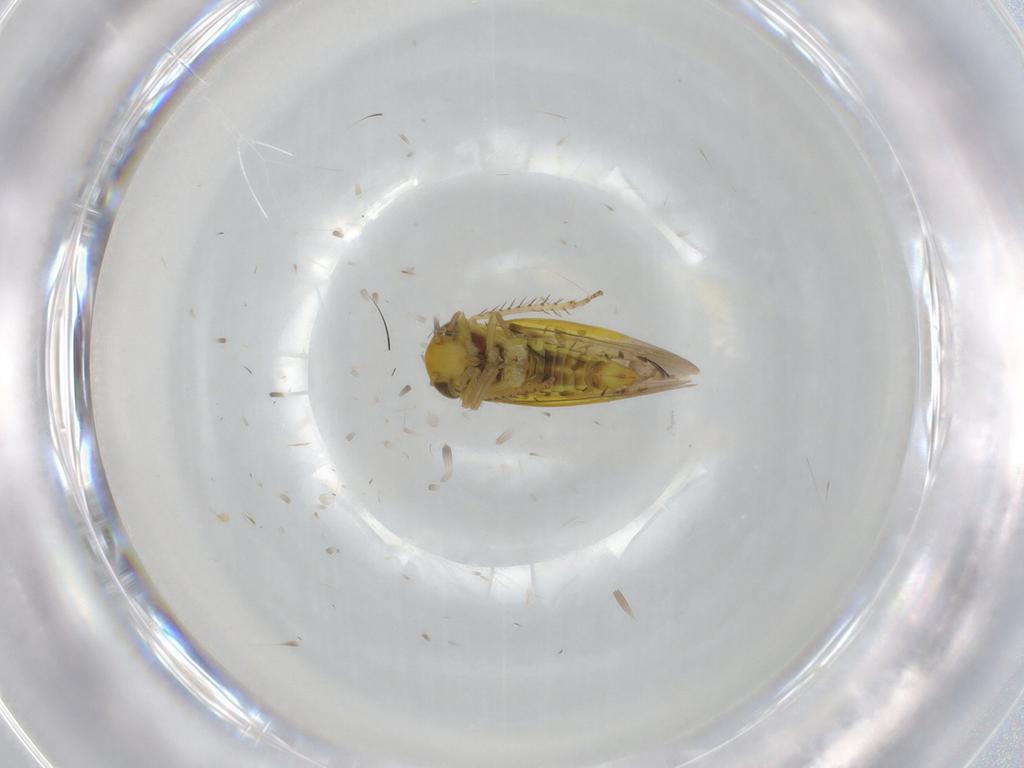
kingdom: Animalia
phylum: Arthropoda
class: Insecta
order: Hemiptera
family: Cicadellidae
